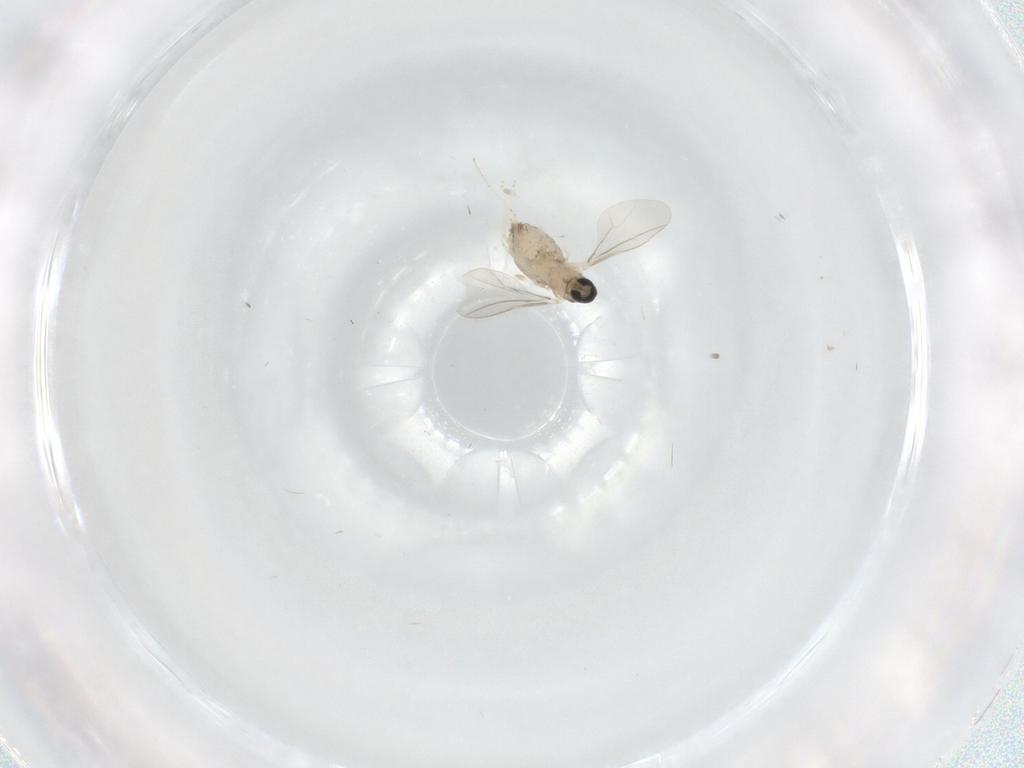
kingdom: Animalia
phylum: Arthropoda
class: Insecta
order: Diptera
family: Cecidomyiidae
